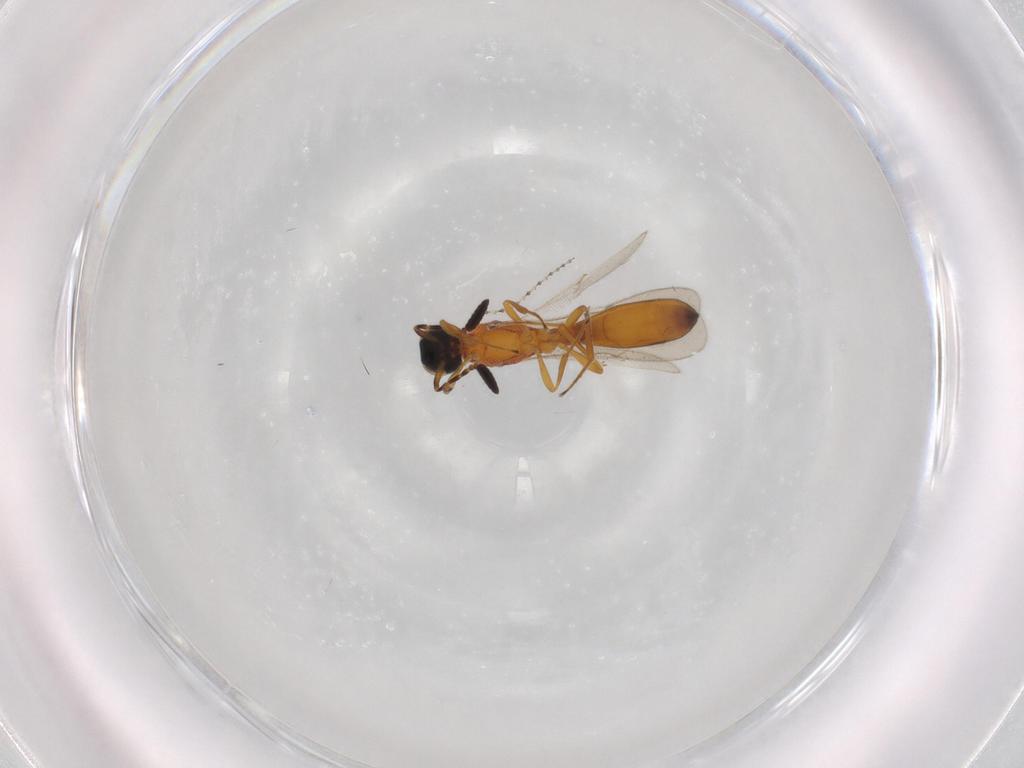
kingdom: Animalia
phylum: Arthropoda
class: Insecta
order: Hymenoptera
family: Scelionidae
